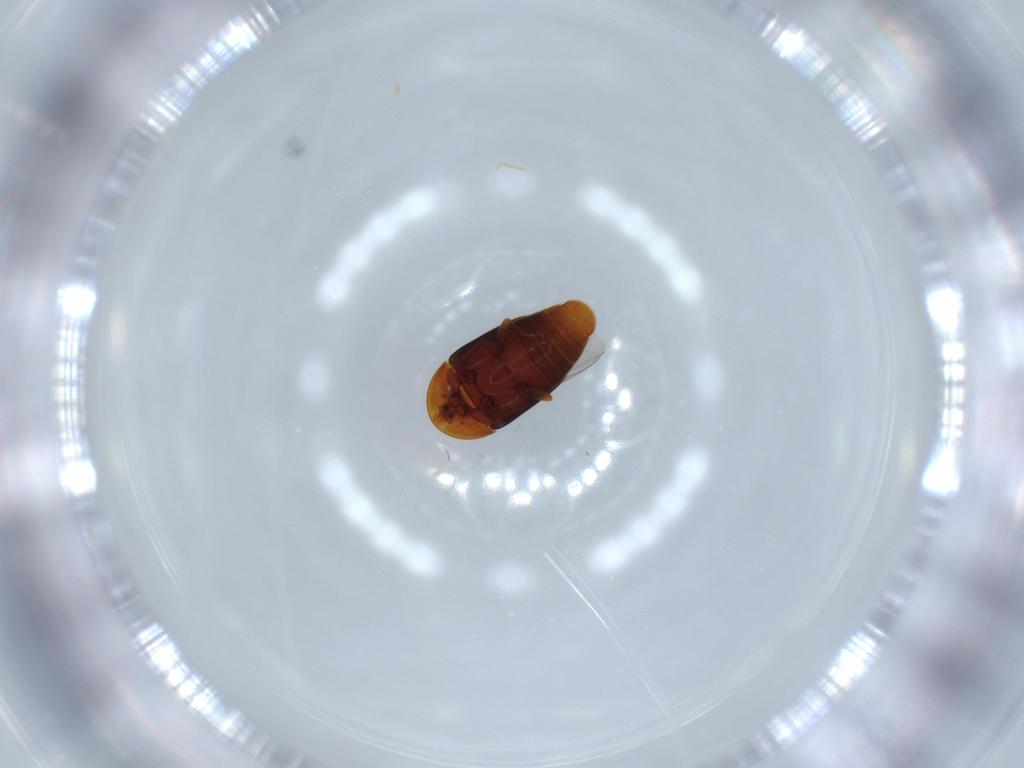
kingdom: Animalia
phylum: Arthropoda
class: Insecta
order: Coleoptera
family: Corylophidae
